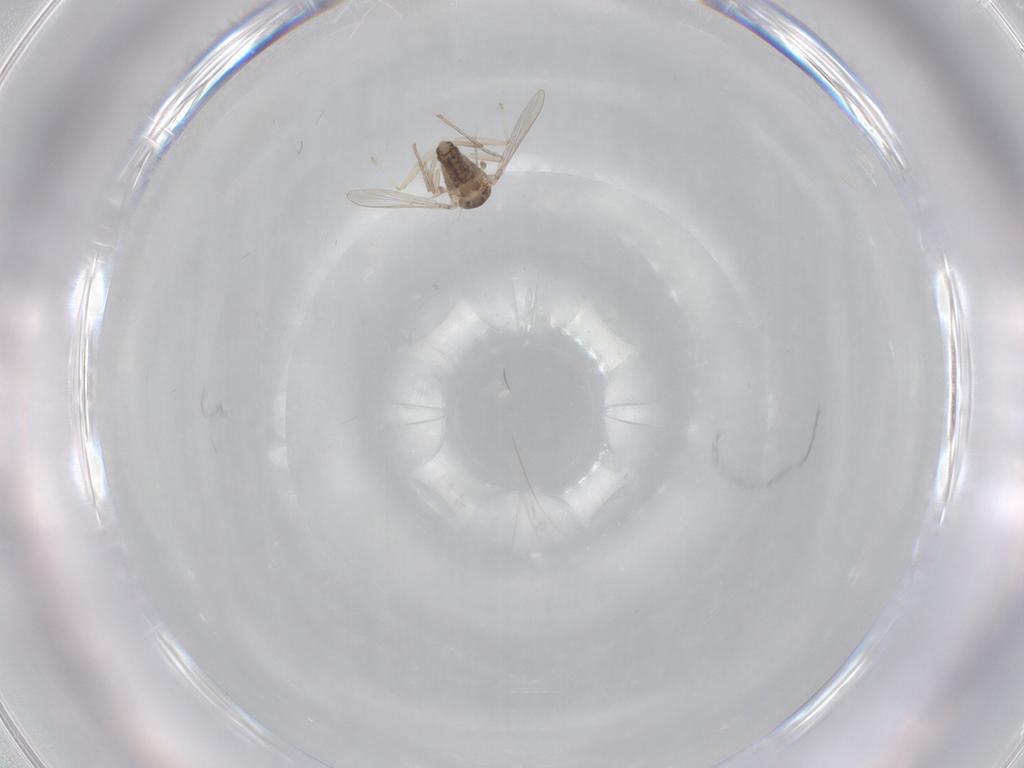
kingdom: Animalia
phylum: Arthropoda
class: Insecta
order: Diptera
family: Chironomidae
